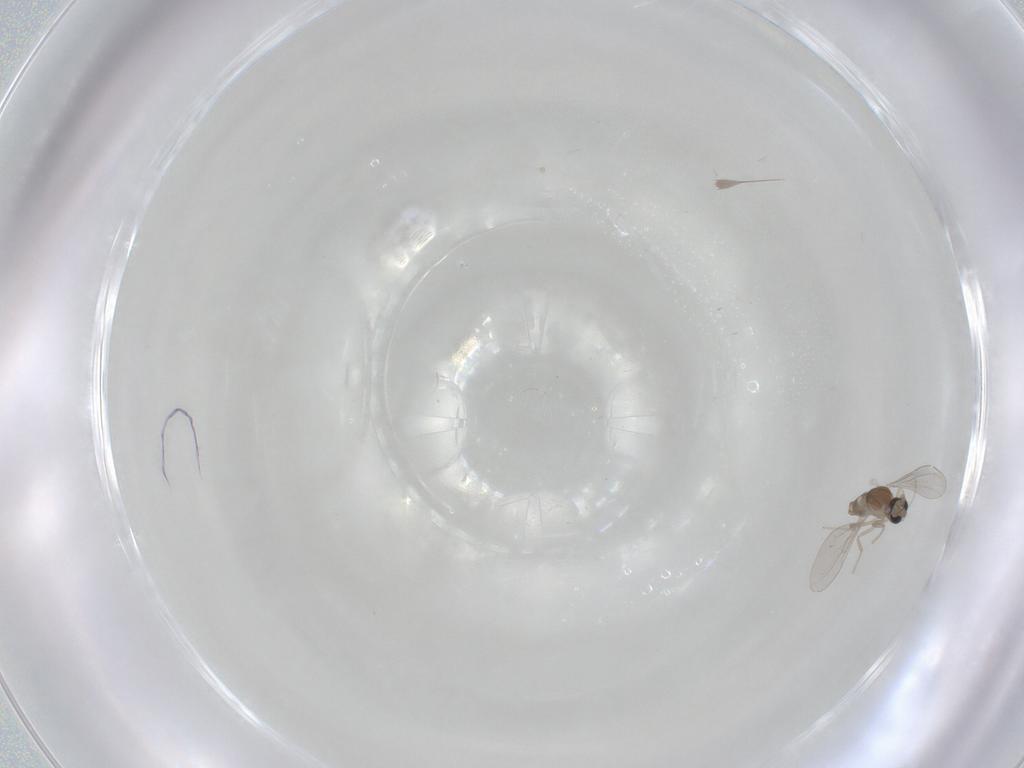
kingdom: Animalia
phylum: Arthropoda
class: Insecta
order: Diptera
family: Cecidomyiidae
